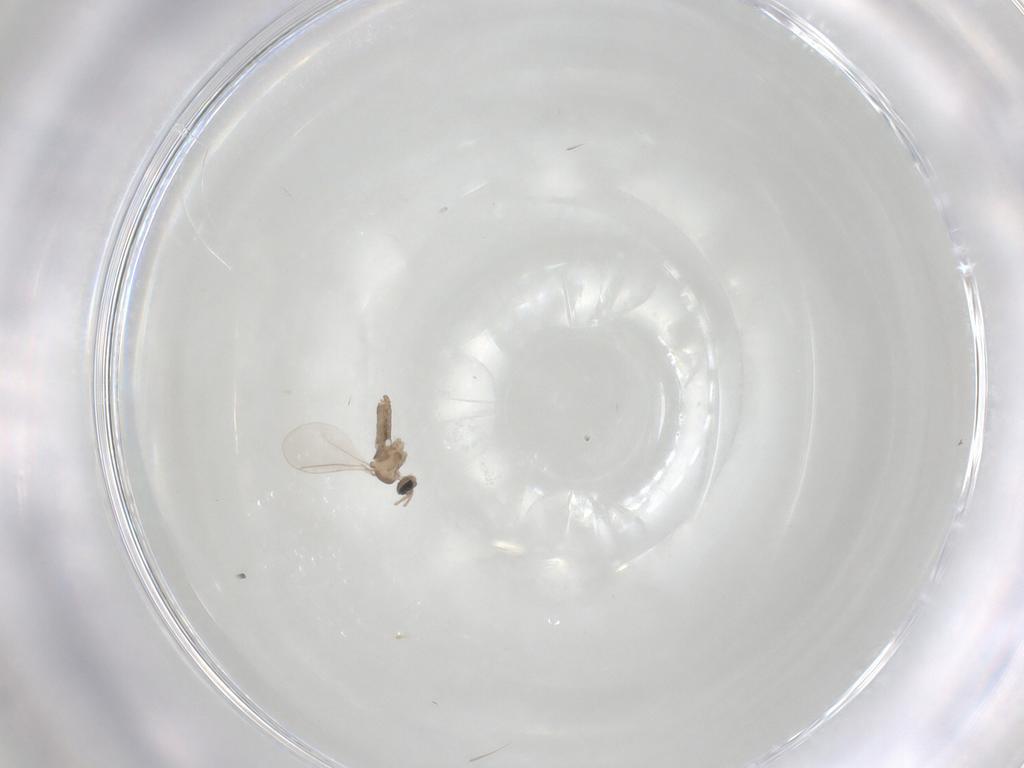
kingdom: Animalia
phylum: Arthropoda
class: Insecta
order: Diptera
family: Cecidomyiidae
